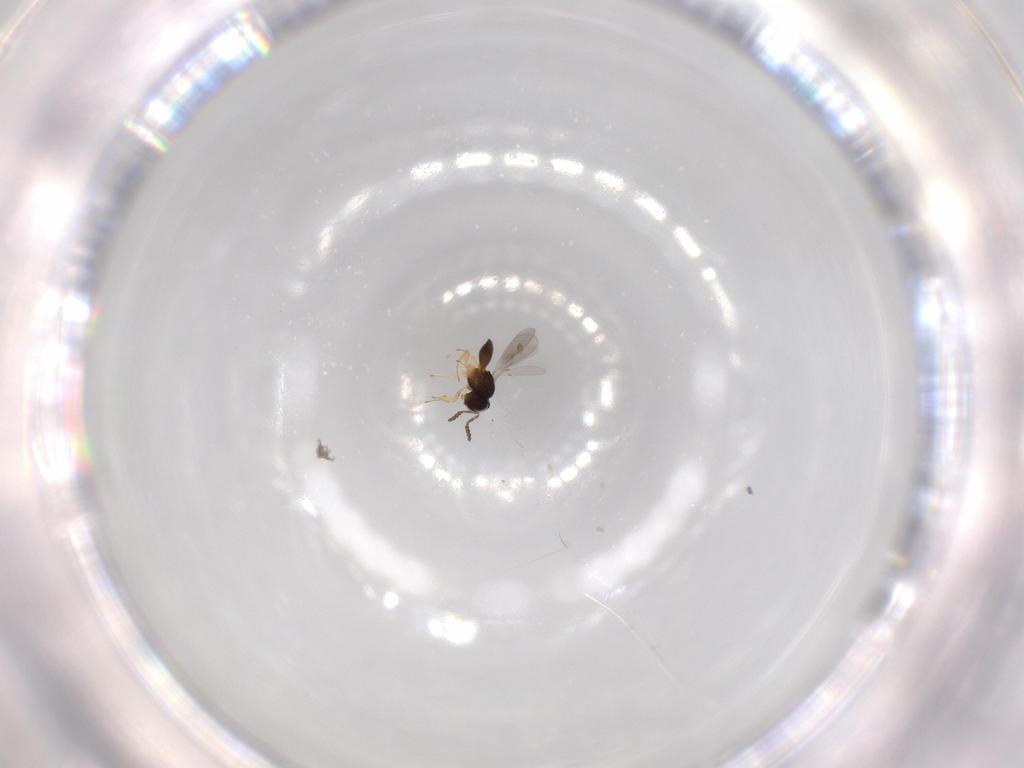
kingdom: Animalia
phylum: Arthropoda
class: Insecta
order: Hymenoptera
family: Scelionidae
